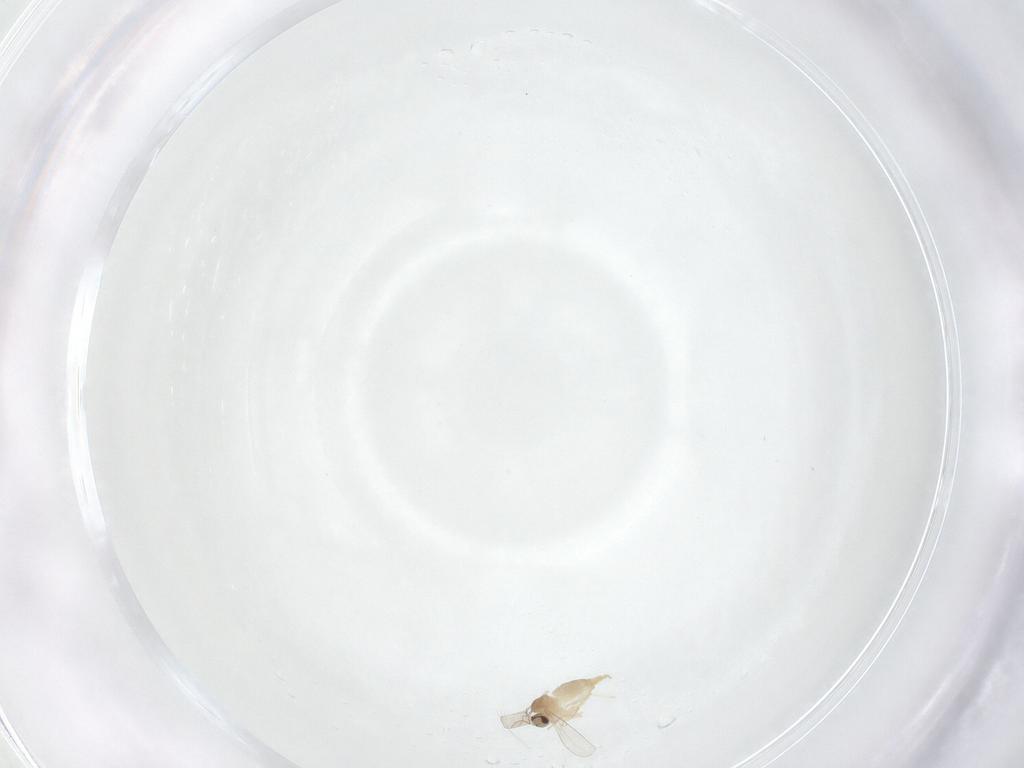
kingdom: Animalia
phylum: Arthropoda
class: Insecta
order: Diptera
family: Cecidomyiidae
